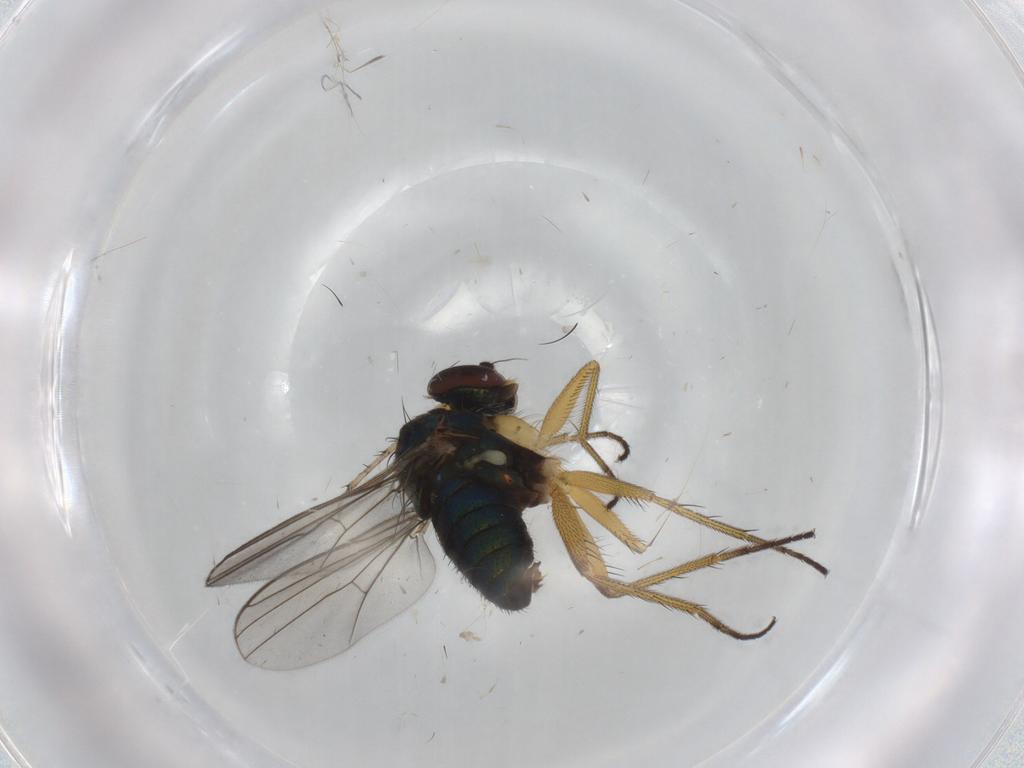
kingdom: Animalia
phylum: Arthropoda
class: Insecta
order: Diptera
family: Dolichopodidae
